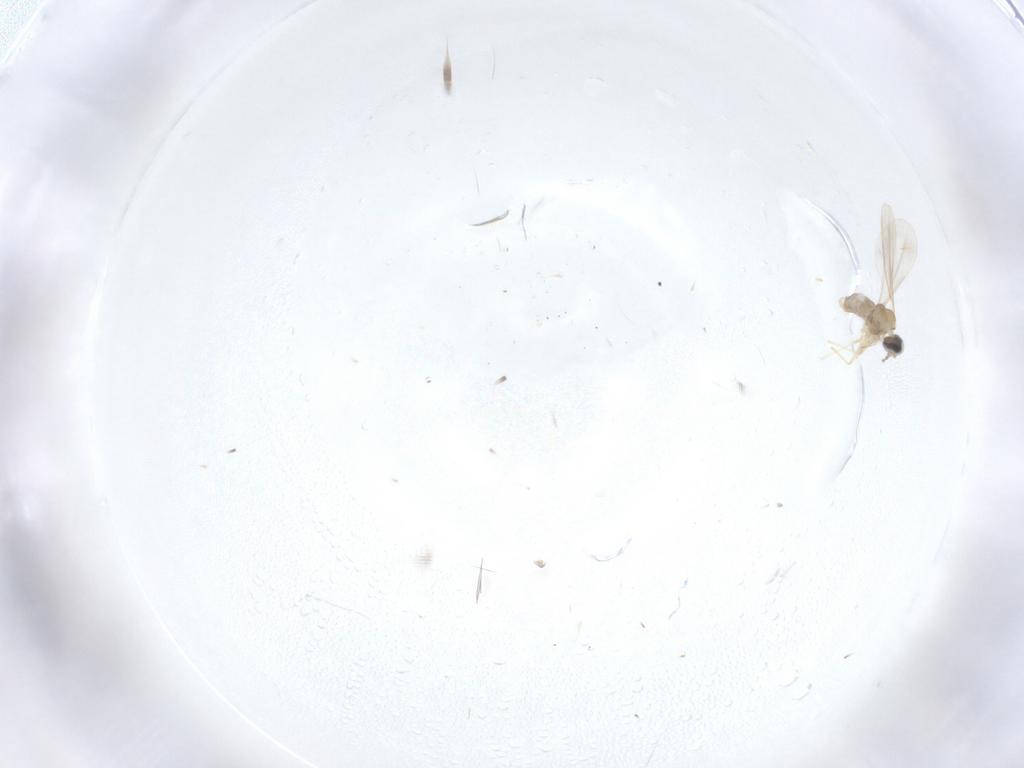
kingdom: Animalia
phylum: Arthropoda
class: Insecta
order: Diptera
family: Cecidomyiidae
